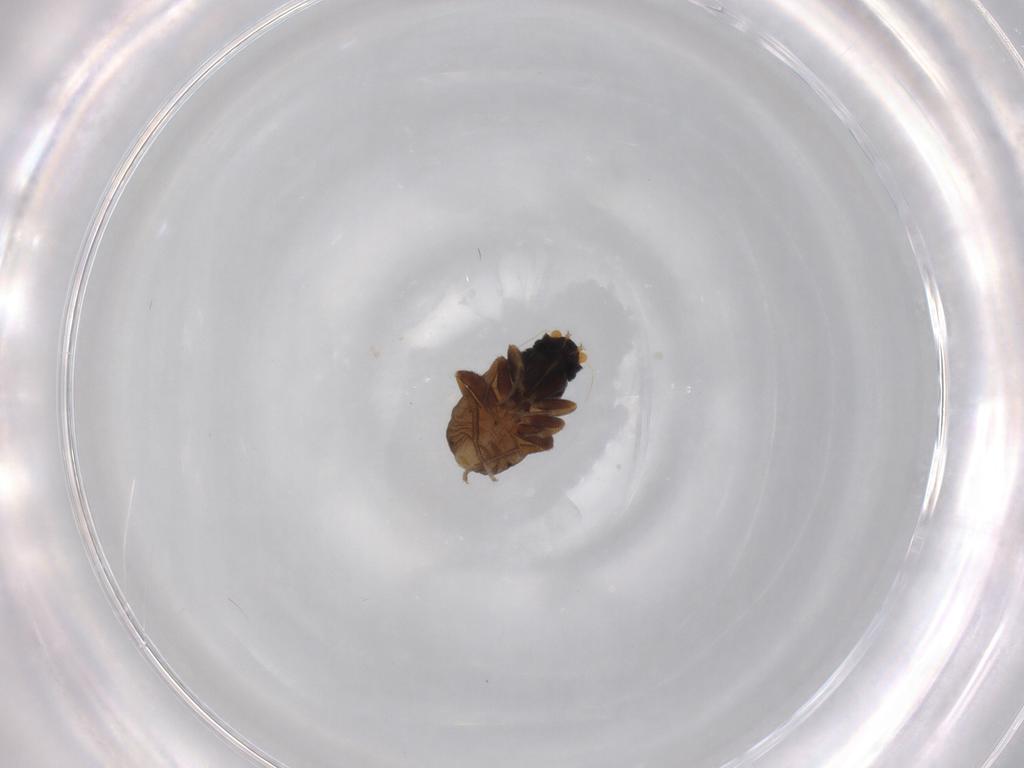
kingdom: Animalia
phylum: Arthropoda
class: Insecta
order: Diptera
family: Phoridae
